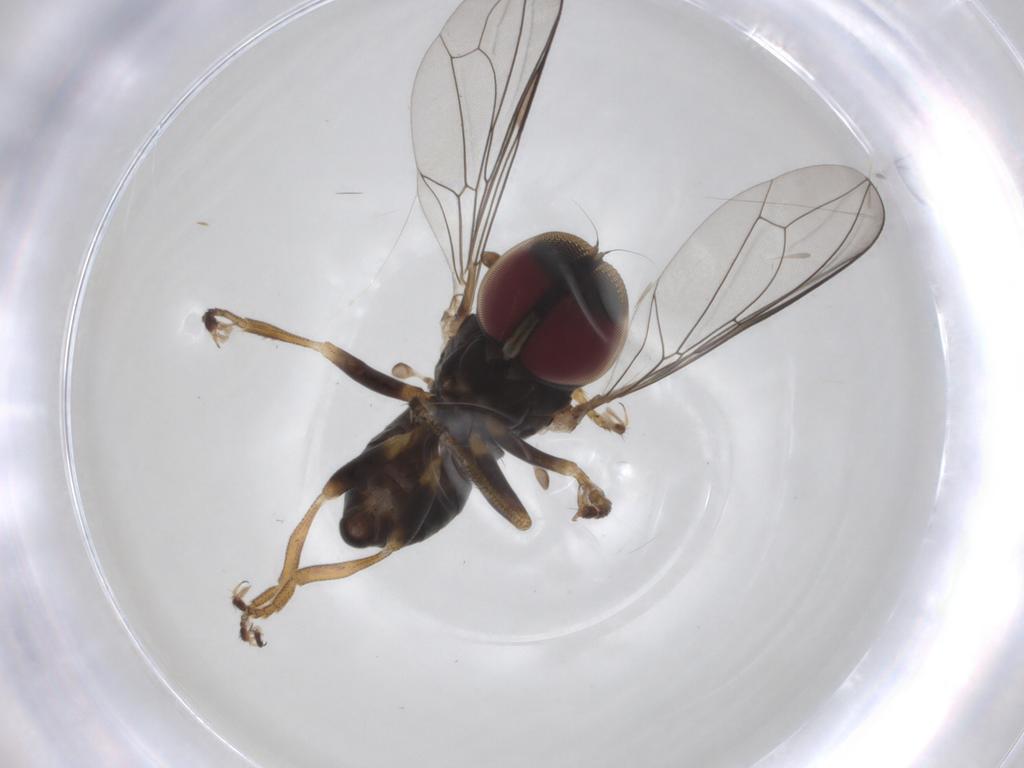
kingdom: Animalia
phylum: Arthropoda
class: Insecta
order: Diptera
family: Pipunculidae
